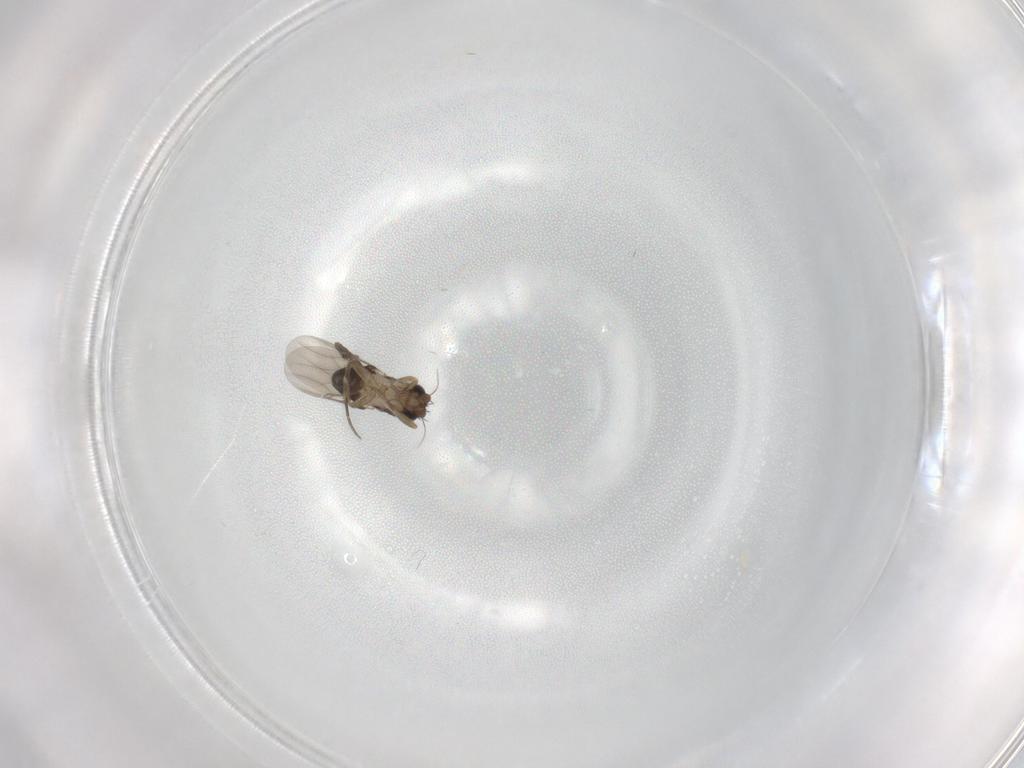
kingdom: Animalia
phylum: Arthropoda
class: Insecta
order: Diptera
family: Phoridae
